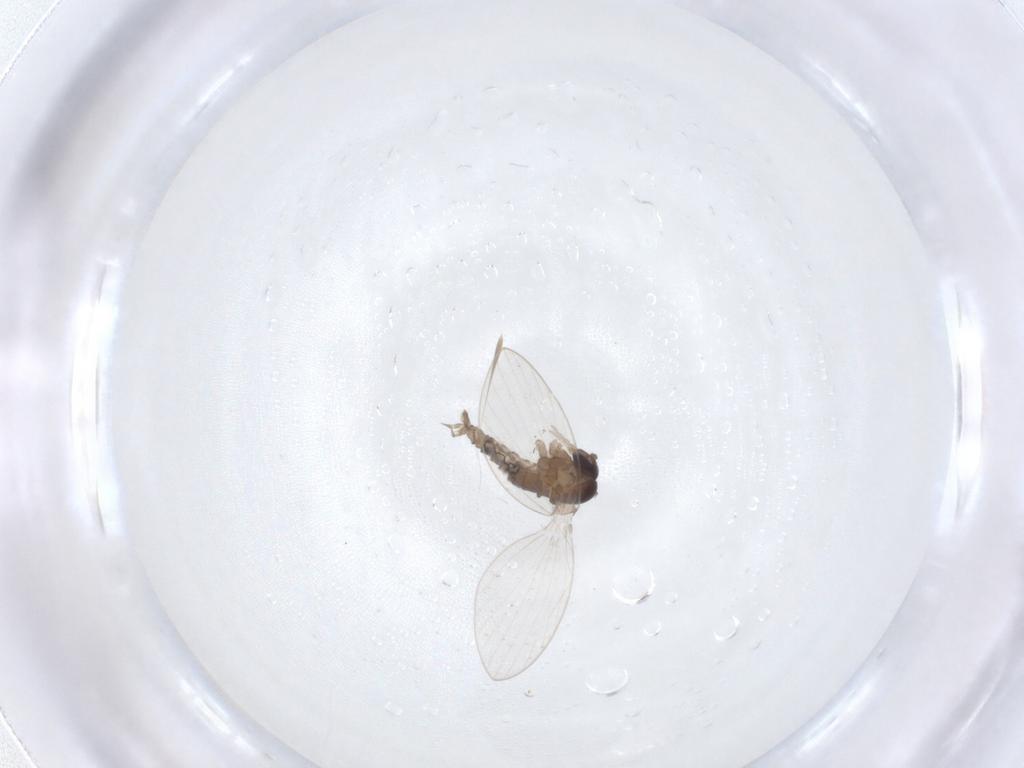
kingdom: Animalia
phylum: Arthropoda
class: Insecta
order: Diptera
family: Psychodidae
